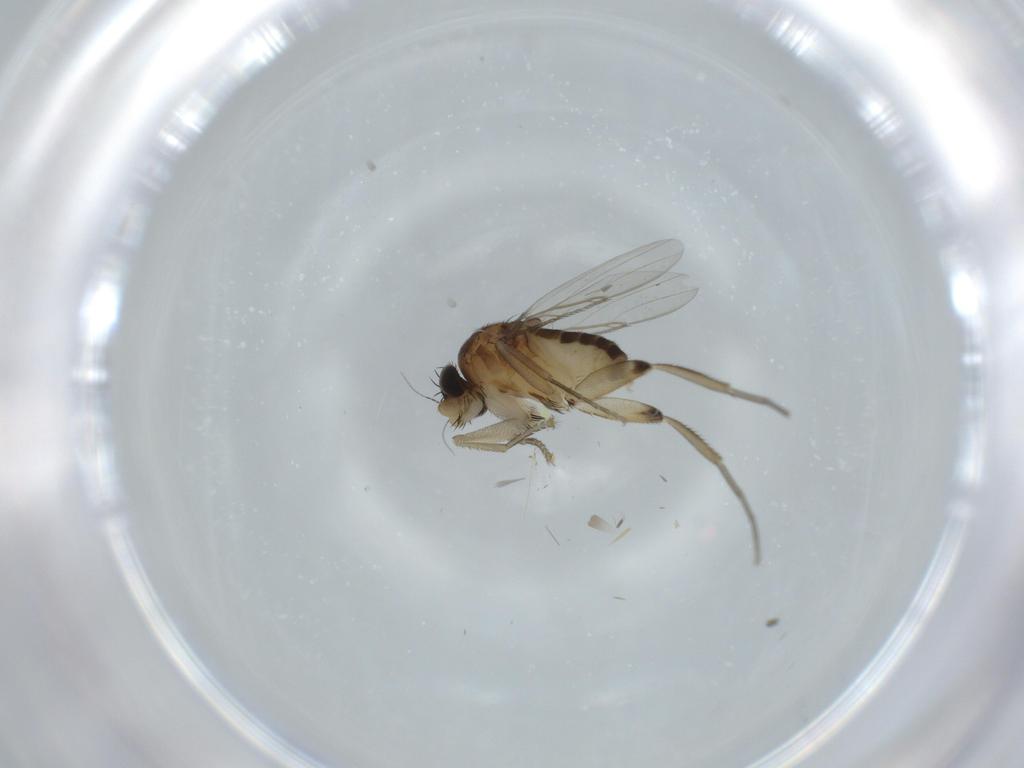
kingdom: Animalia
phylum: Arthropoda
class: Insecta
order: Diptera
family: Phoridae
